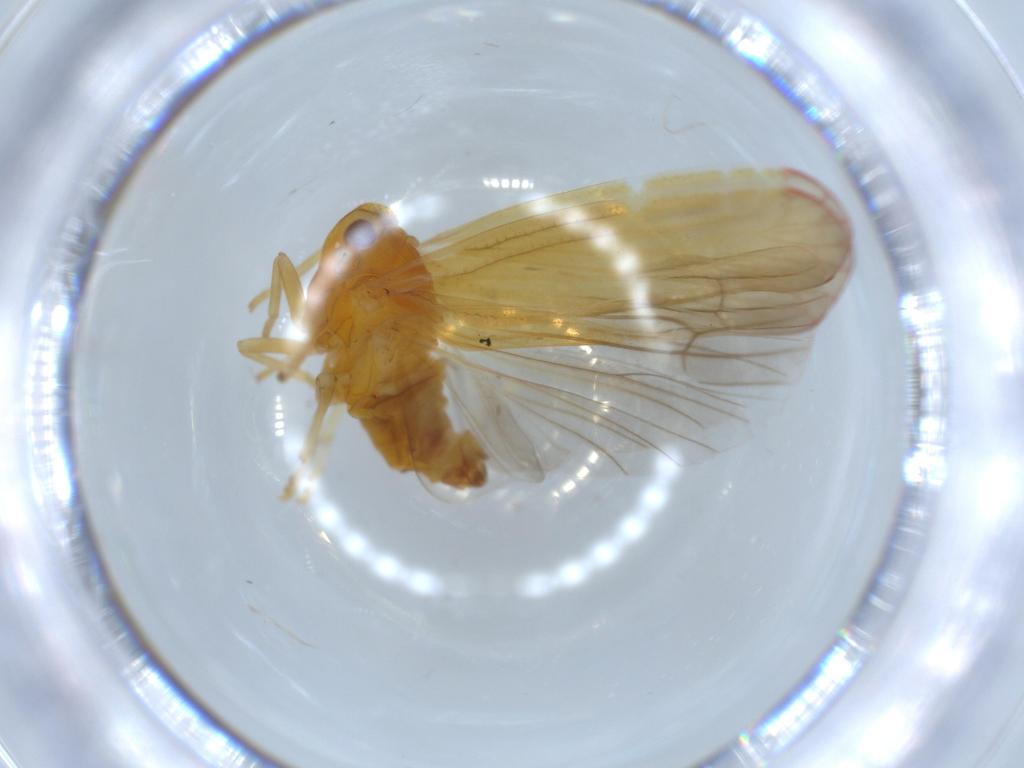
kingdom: Animalia
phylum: Arthropoda
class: Insecta
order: Hemiptera
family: Derbidae
